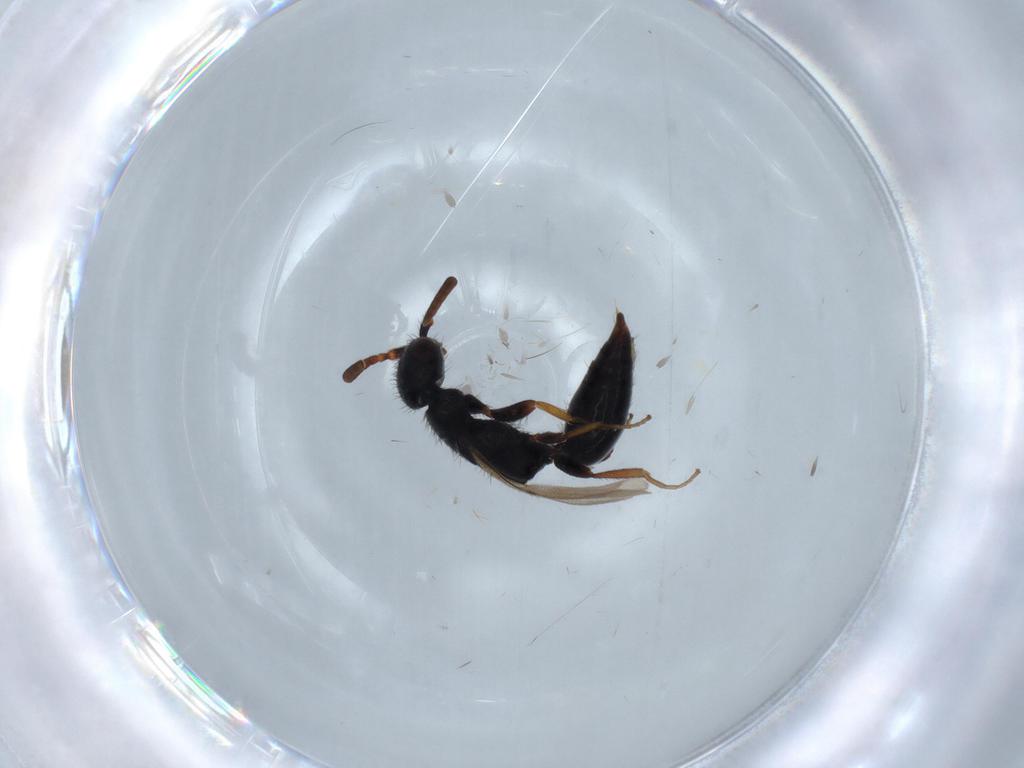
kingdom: Animalia
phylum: Arthropoda
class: Insecta
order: Hymenoptera
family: Bethylidae
